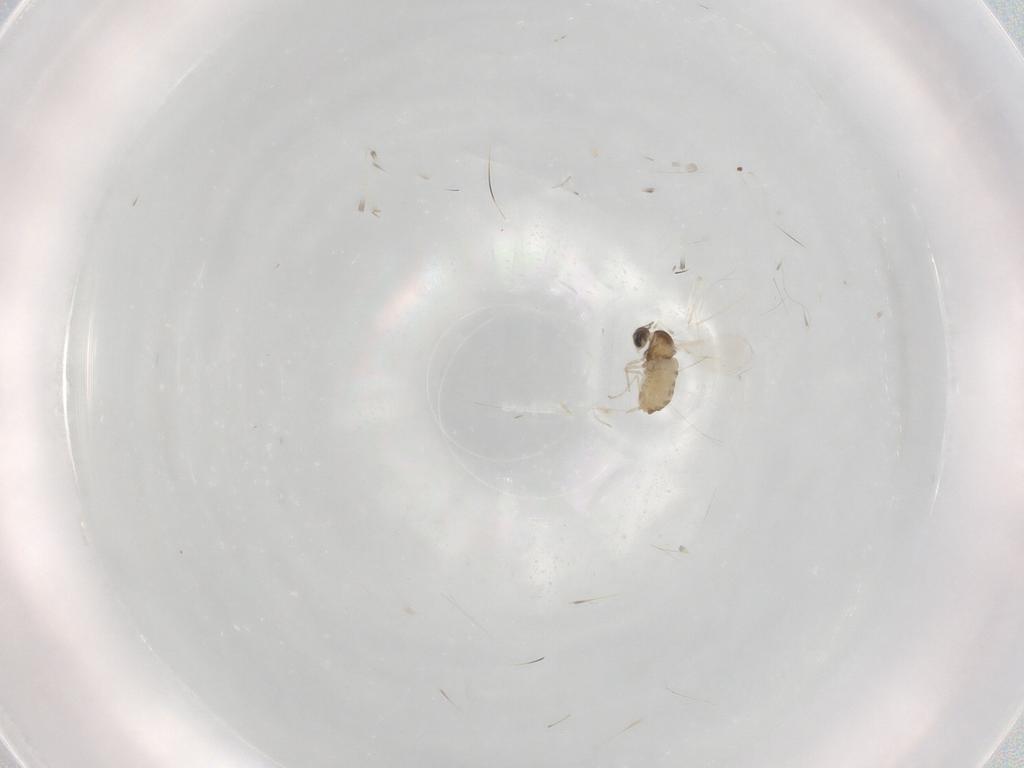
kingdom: Animalia
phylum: Arthropoda
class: Insecta
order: Diptera
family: Cecidomyiidae
